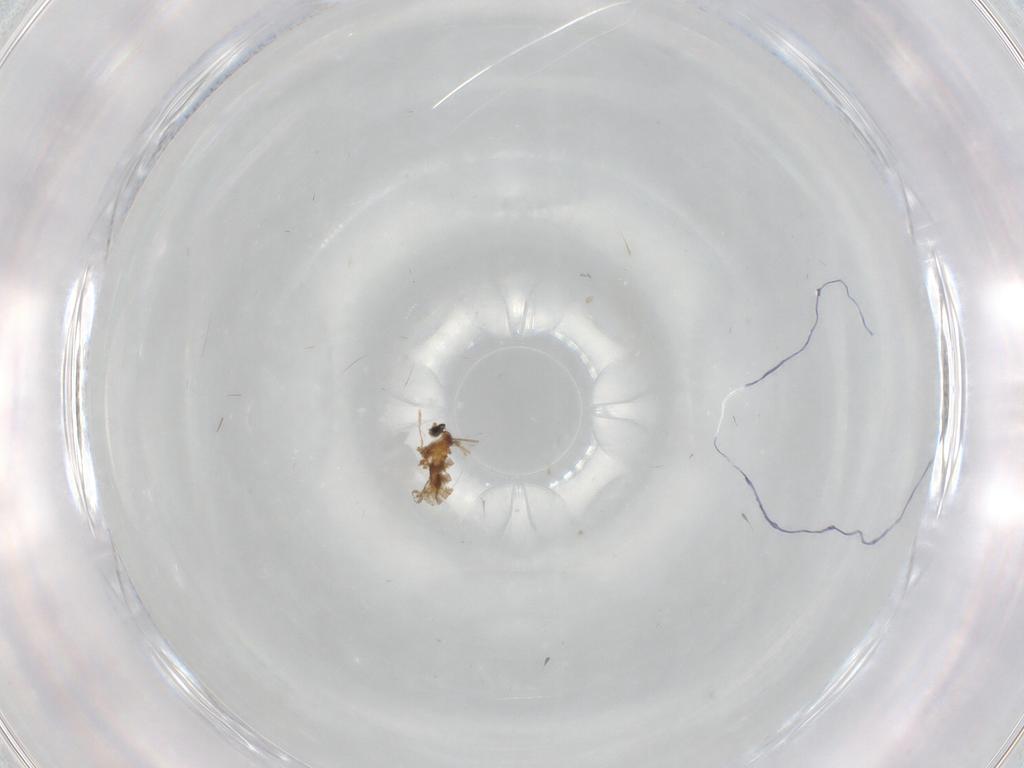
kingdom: Animalia
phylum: Arthropoda
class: Insecta
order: Diptera
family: Cecidomyiidae
